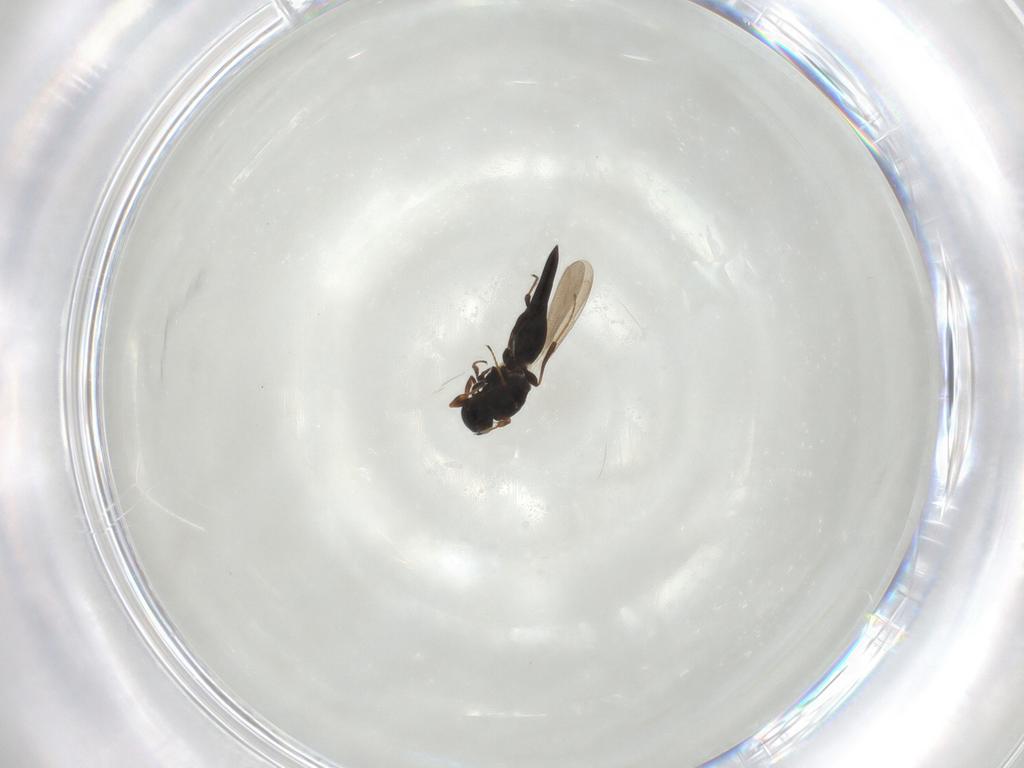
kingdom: Animalia
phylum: Arthropoda
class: Insecta
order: Hymenoptera
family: Platygastridae
